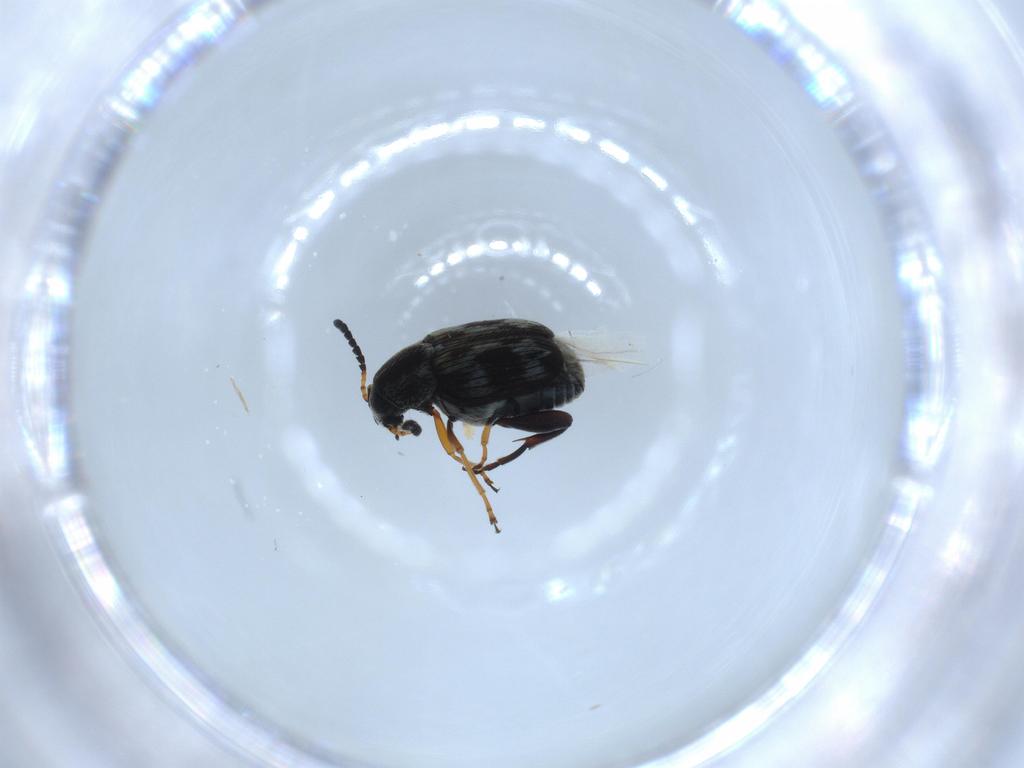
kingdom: Animalia
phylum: Arthropoda
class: Insecta
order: Coleoptera
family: Chrysomelidae
